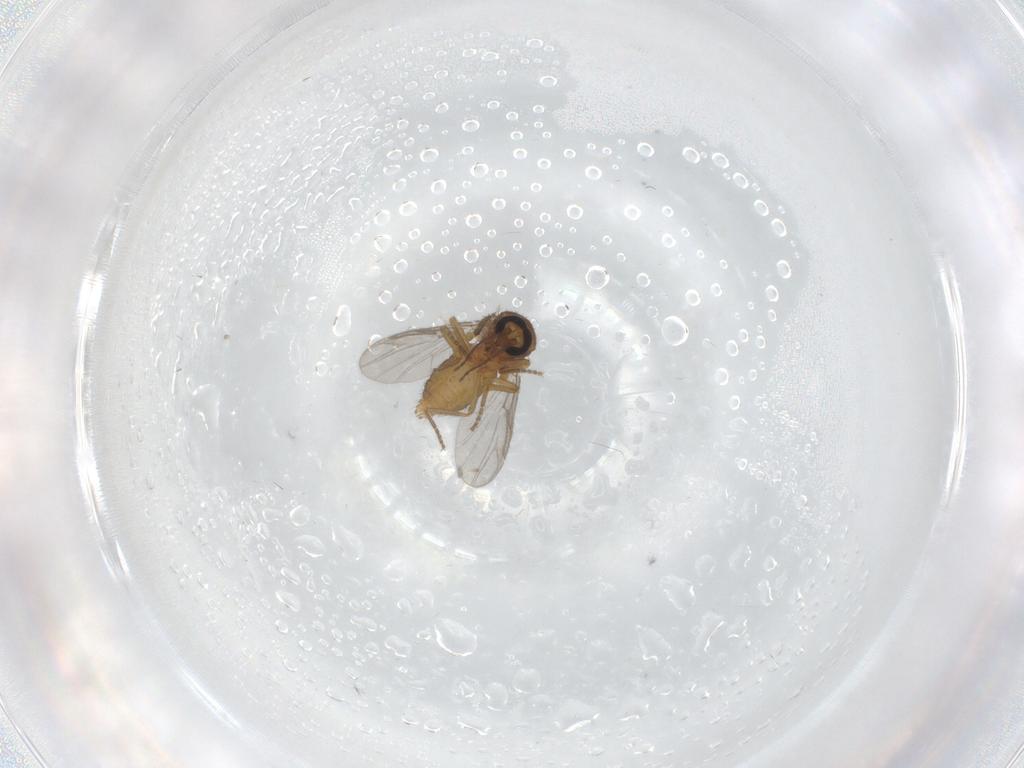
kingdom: Animalia
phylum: Arthropoda
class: Insecta
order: Diptera
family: Ceratopogonidae
